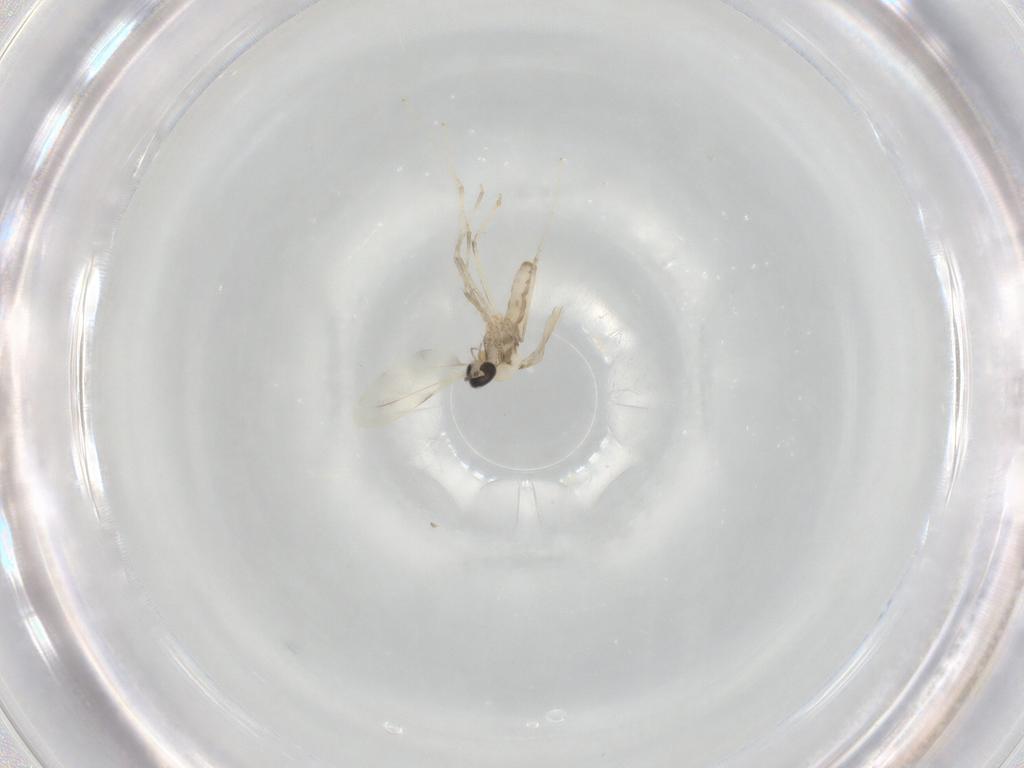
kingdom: Animalia
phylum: Arthropoda
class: Insecta
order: Diptera
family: Cecidomyiidae
